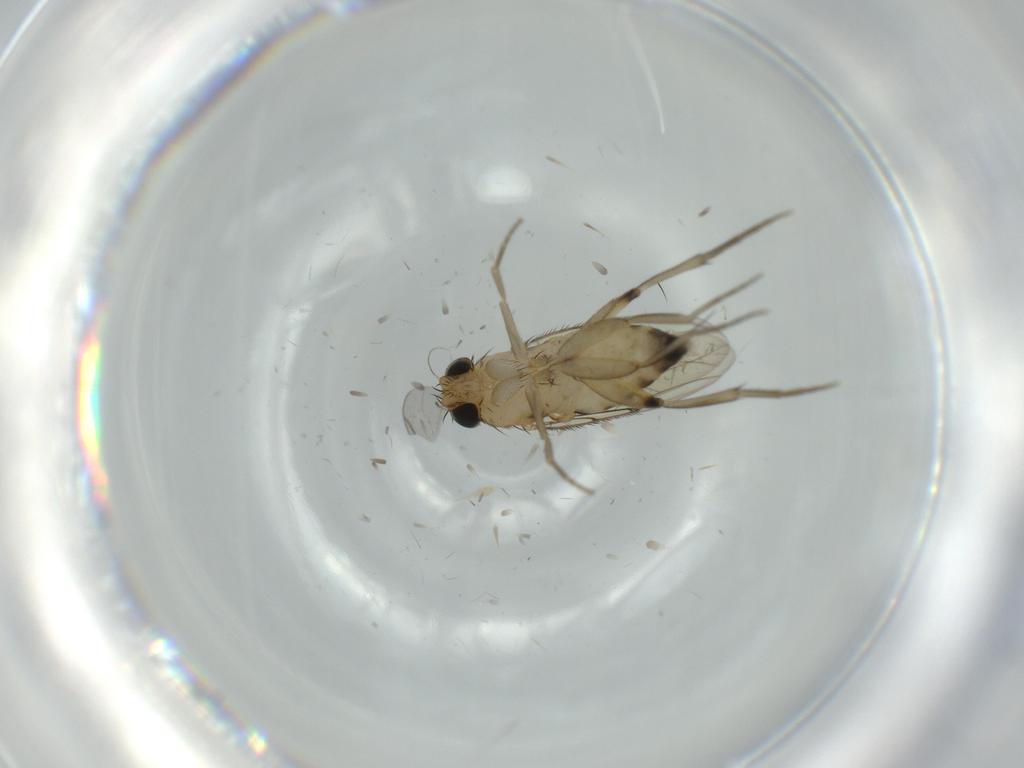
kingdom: Animalia
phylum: Arthropoda
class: Insecta
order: Diptera
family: Phoridae
